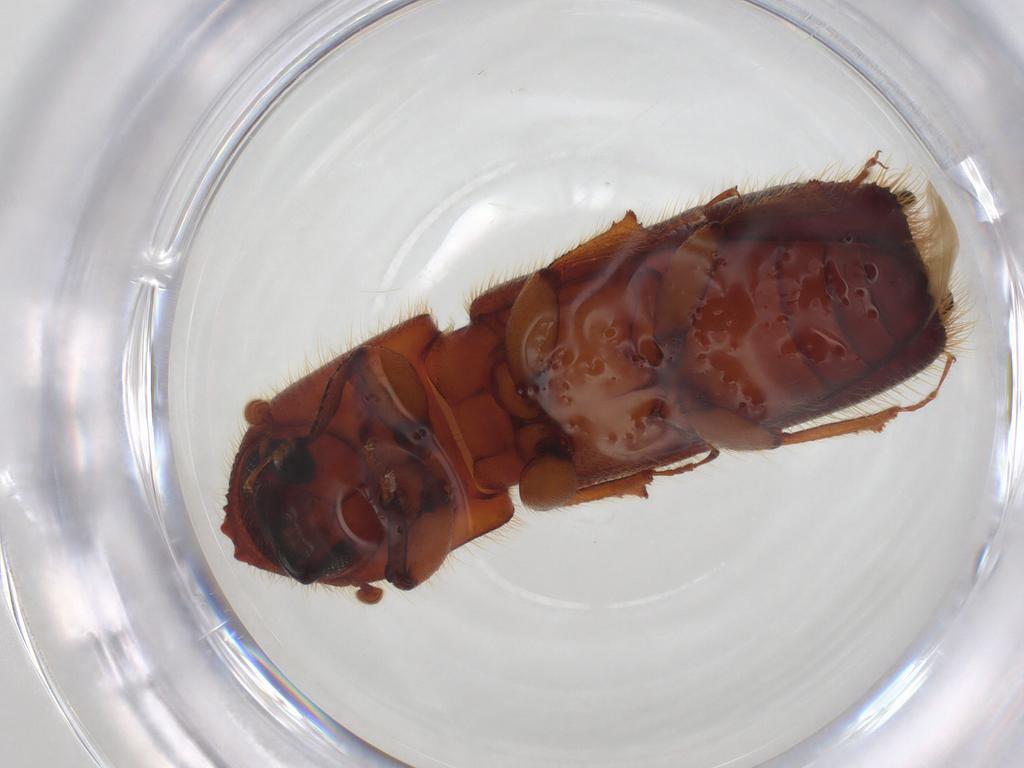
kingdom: Animalia
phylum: Arthropoda
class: Insecta
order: Coleoptera
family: Curculionidae
